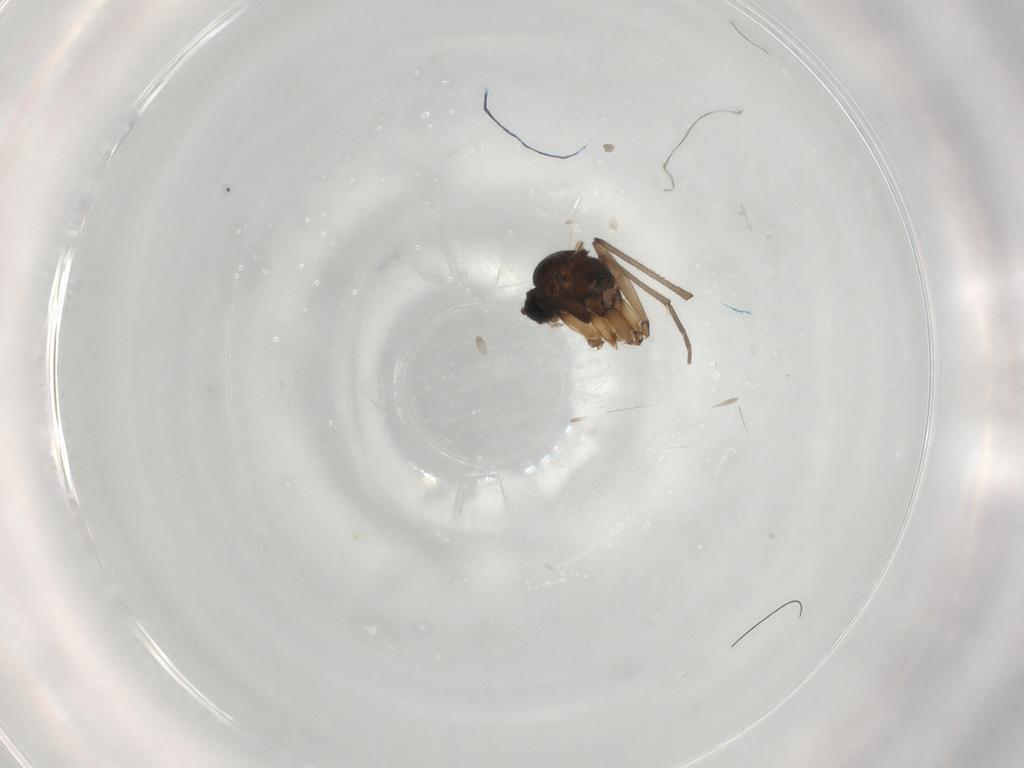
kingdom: Animalia
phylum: Arthropoda
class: Insecta
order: Diptera
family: Sciaridae
